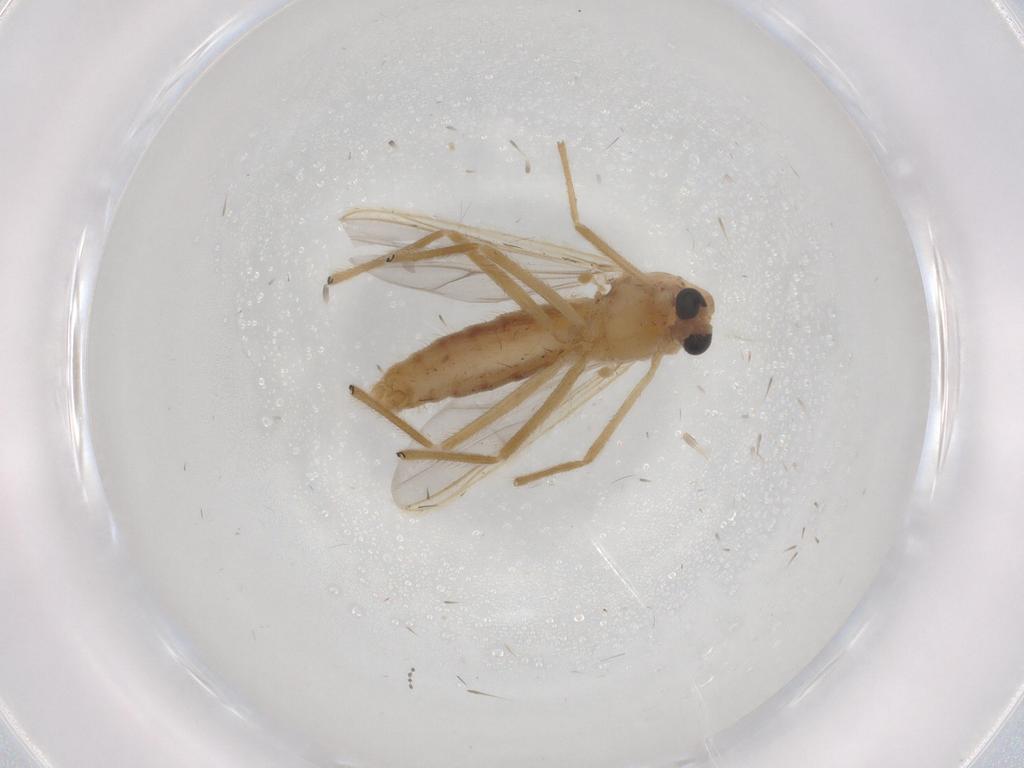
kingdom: Animalia
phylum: Arthropoda
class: Insecta
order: Diptera
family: Chironomidae
